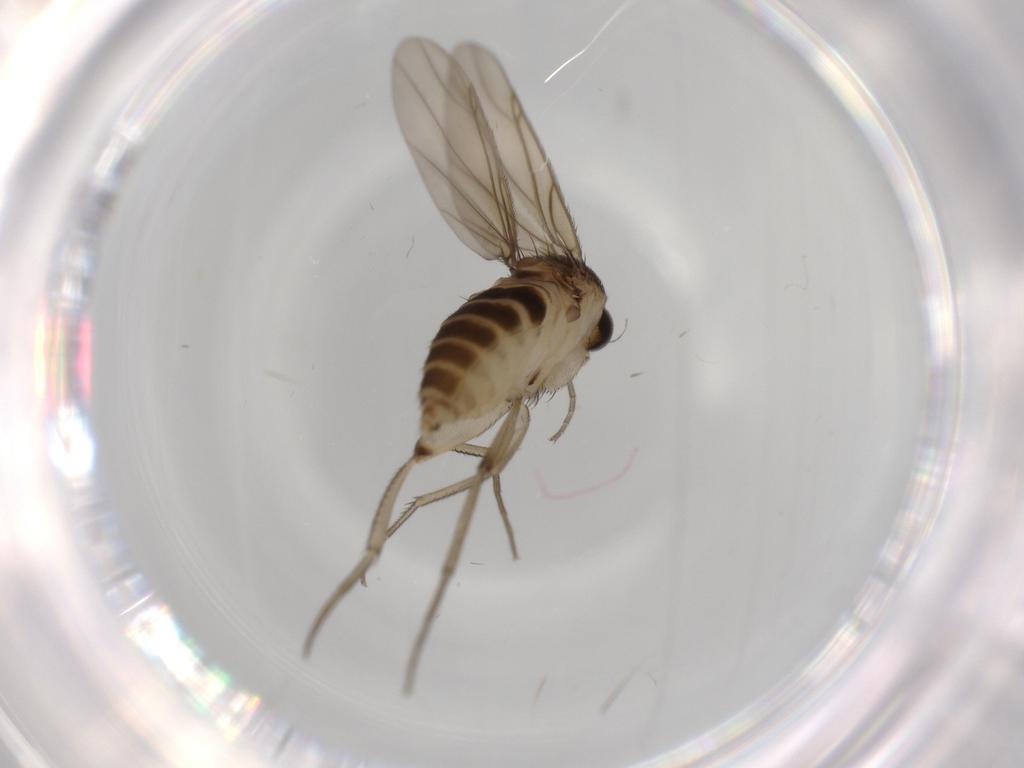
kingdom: Animalia
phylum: Arthropoda
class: Insecta
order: Diptera
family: Phoridae
